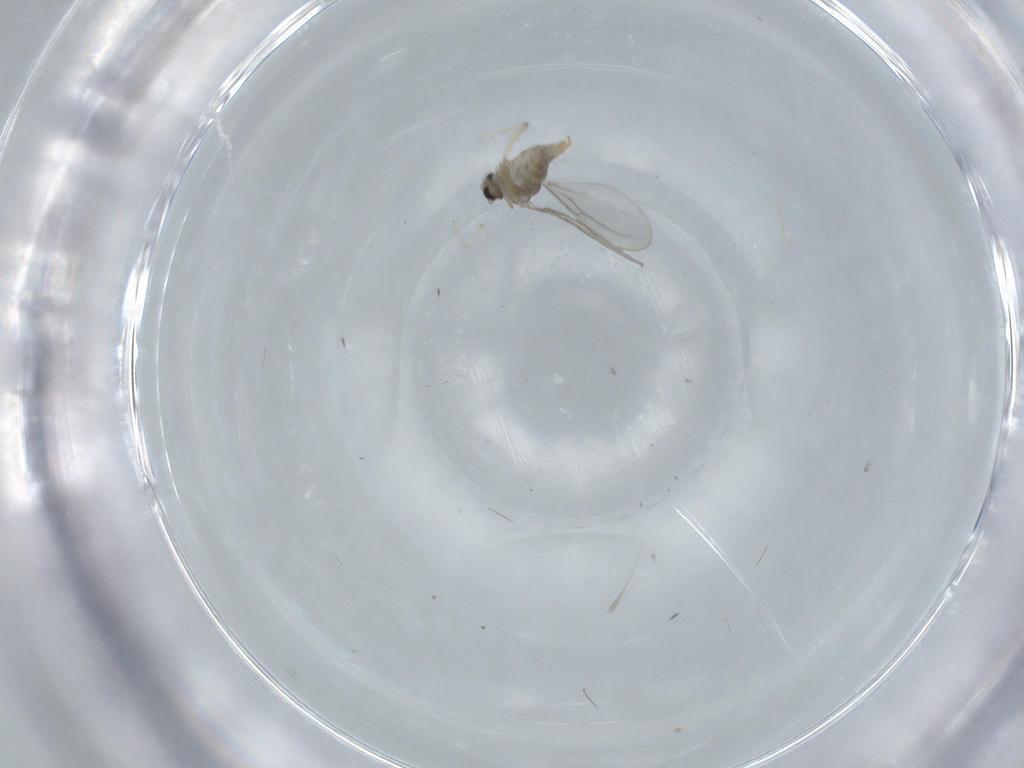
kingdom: Animalia
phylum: Arthropoda
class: Insecta
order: Diptera
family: Cecidomyiidae
